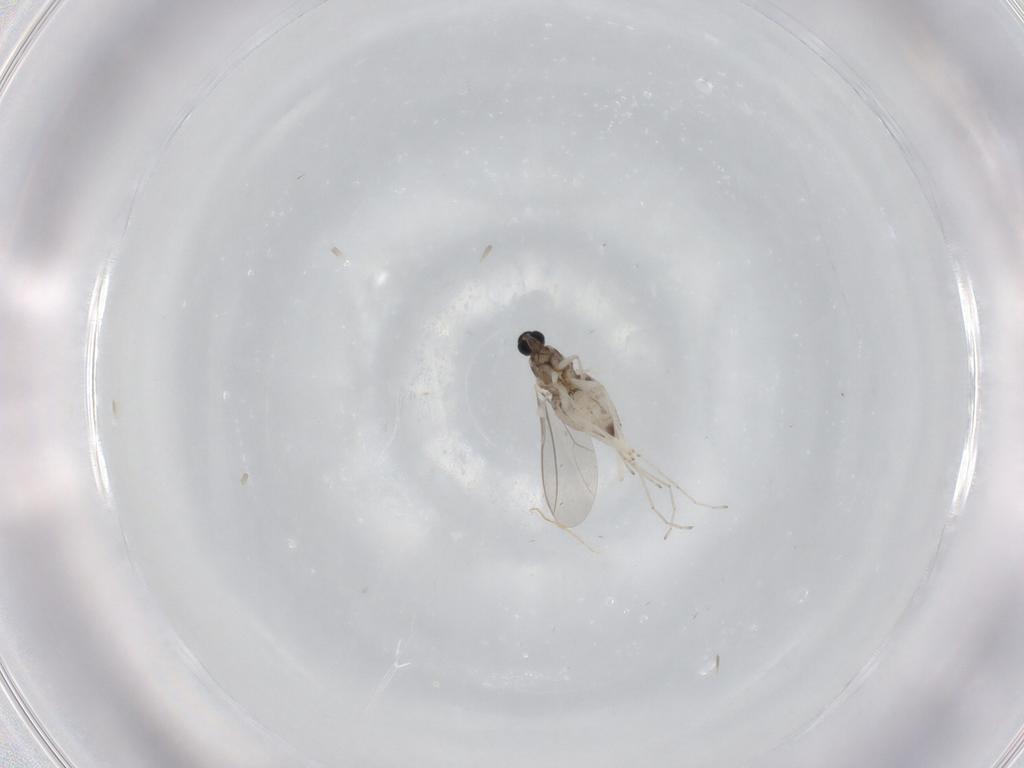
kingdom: Animalia
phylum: Arthropoda
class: Insecta
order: Diptera
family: Cecidomyiidae
